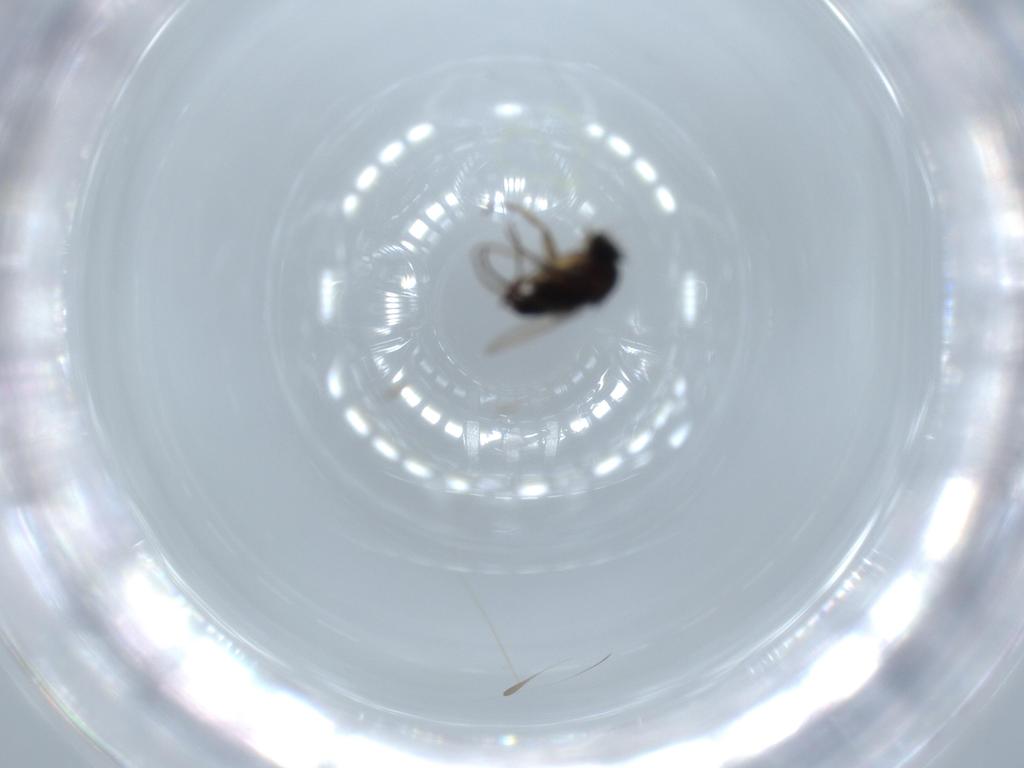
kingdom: Animalia
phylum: Arthropoda
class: Insecta
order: Diptera
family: Phoridae
